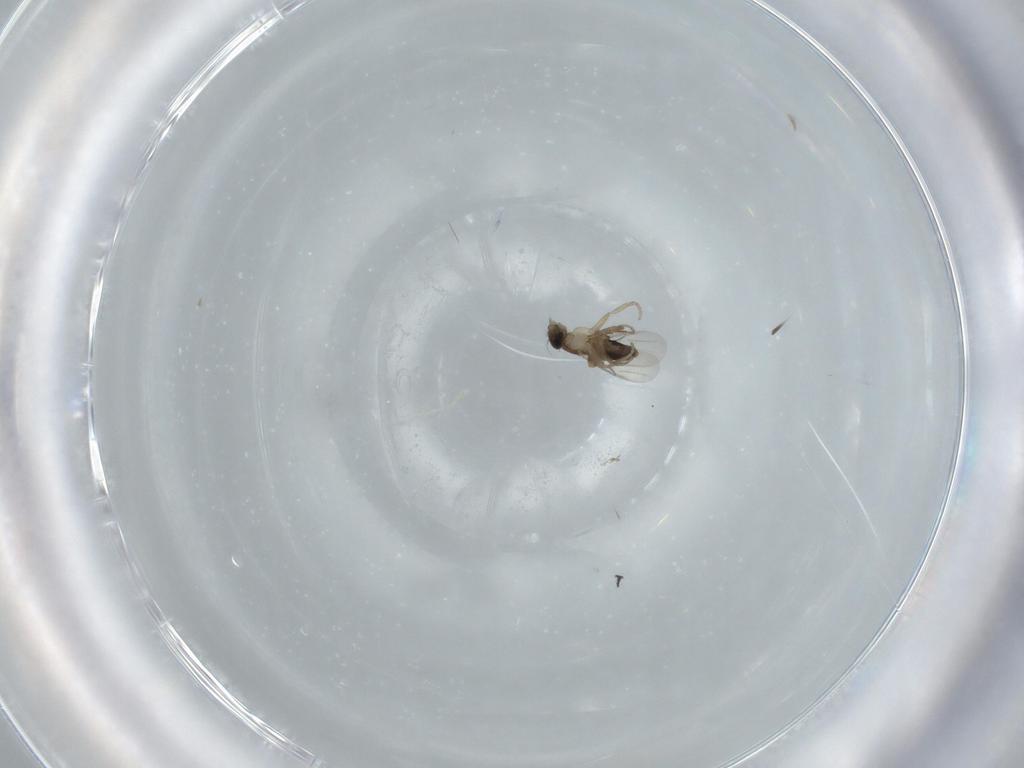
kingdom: Animalia
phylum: Arthropoda
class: Insecta
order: Diptera
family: Phoridae
